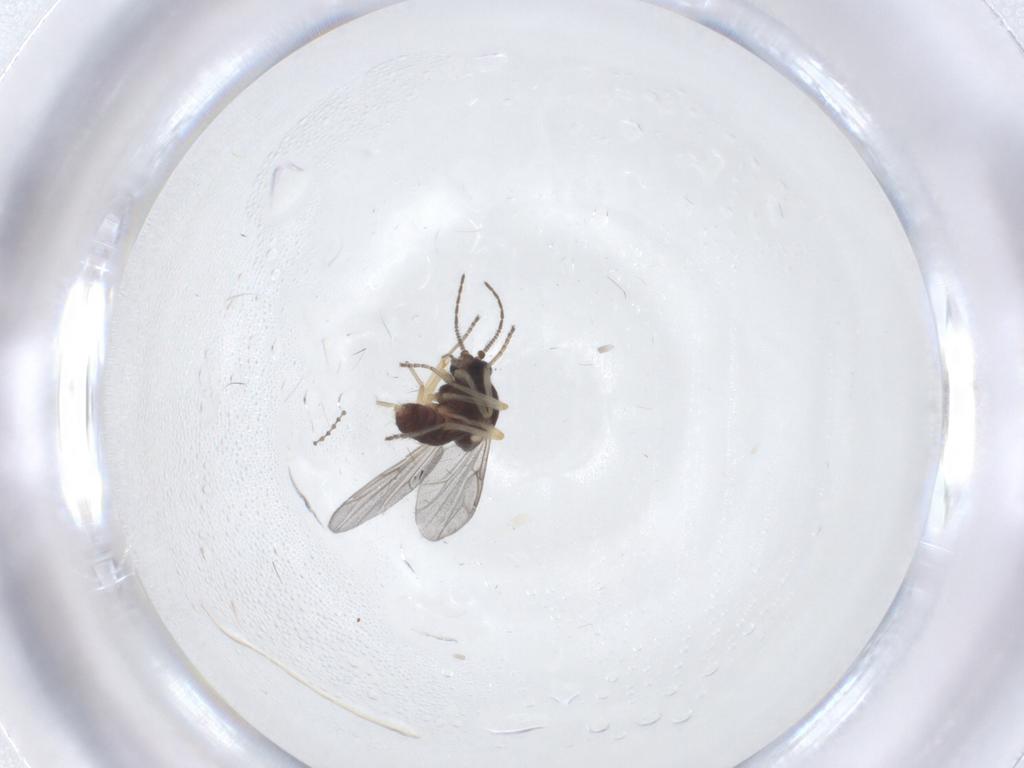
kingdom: Animalia
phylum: Arthropoda
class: Insecta
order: Diptera
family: Ceratopogonidae
